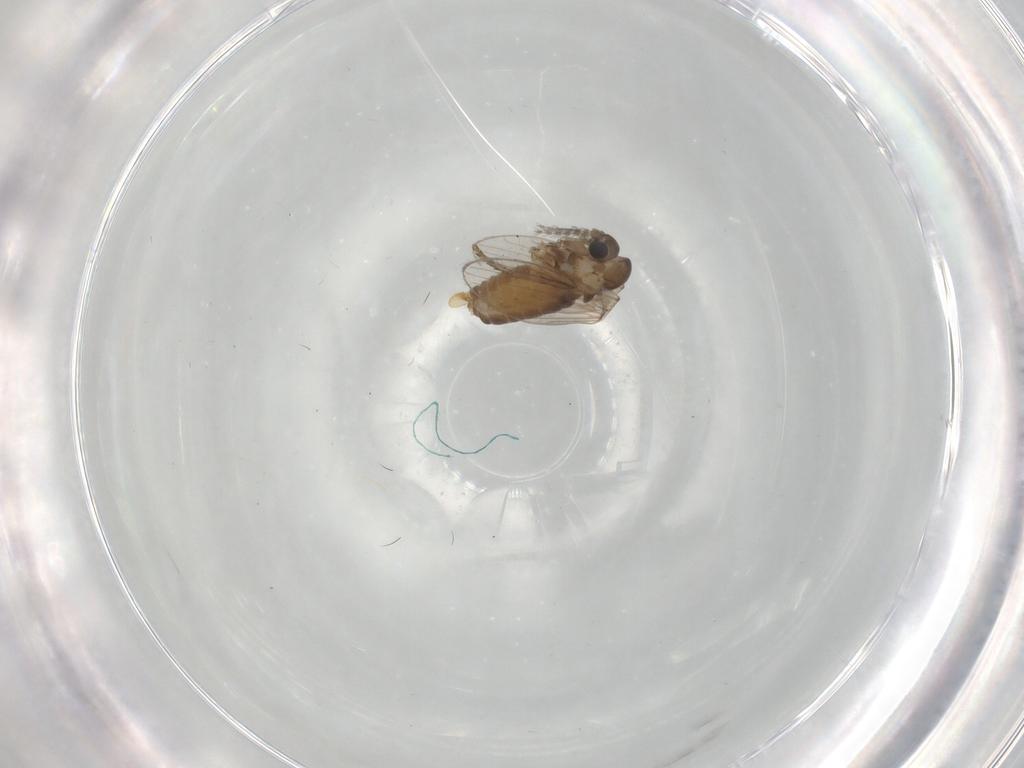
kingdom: Animalia
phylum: Arthropoda
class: Insecta
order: Diptera
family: Psychodidae
